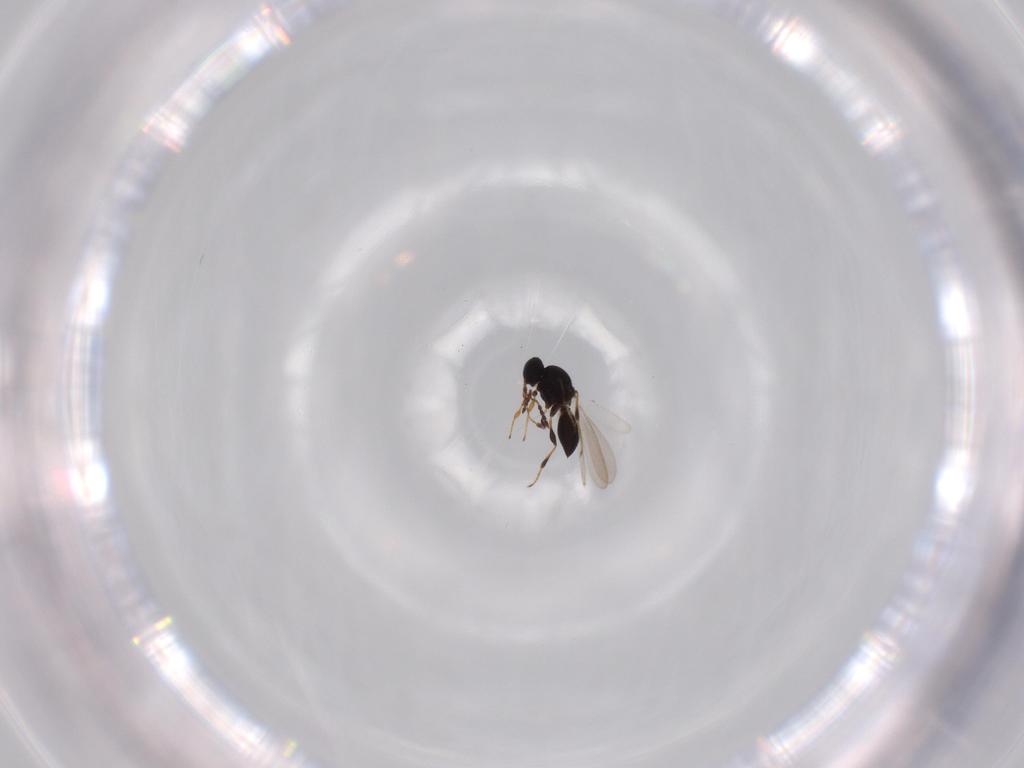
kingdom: Animalia
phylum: Arthropoda
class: Insecta
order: Hymenoptera
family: Platygastridae
